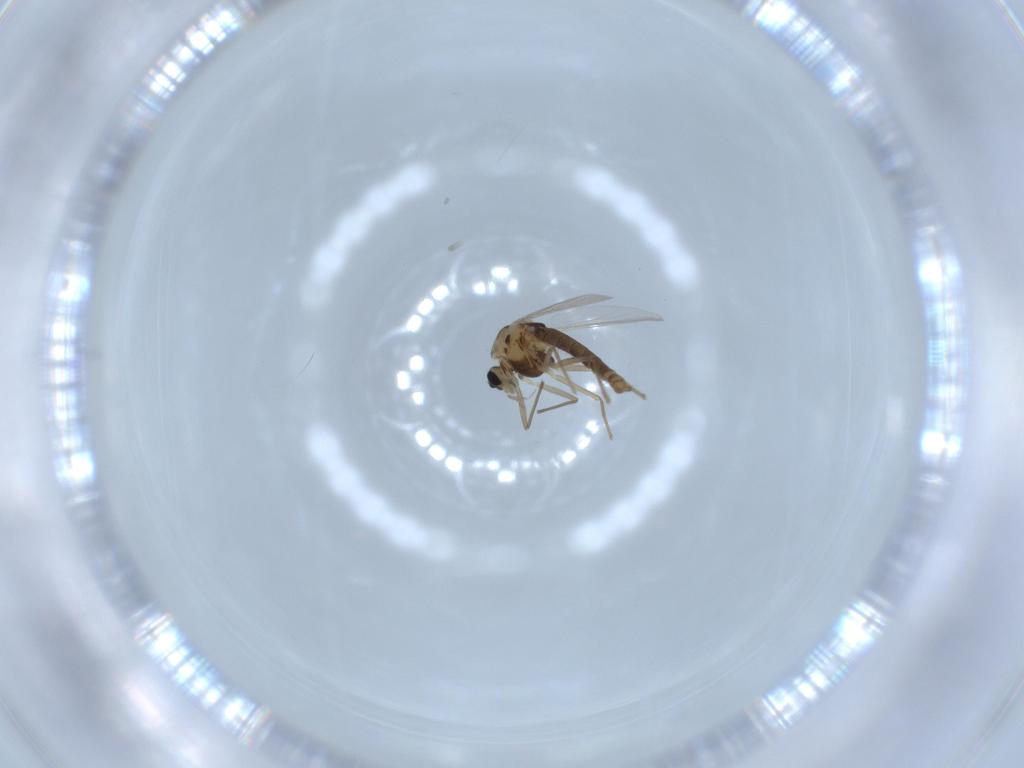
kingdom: Animalia
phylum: Arthropoda
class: Insecta
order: Diptera
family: Chironomidae
